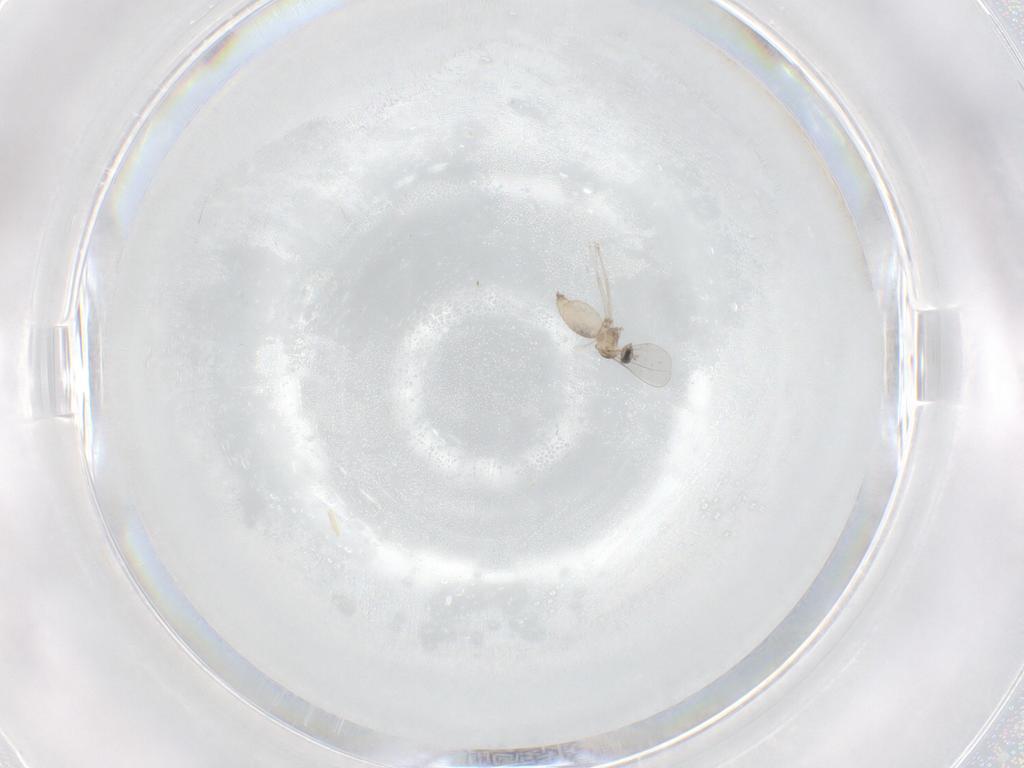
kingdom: Animalia
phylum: Arthropoda
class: Insecta
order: Diptera
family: Cecidomyiidae
